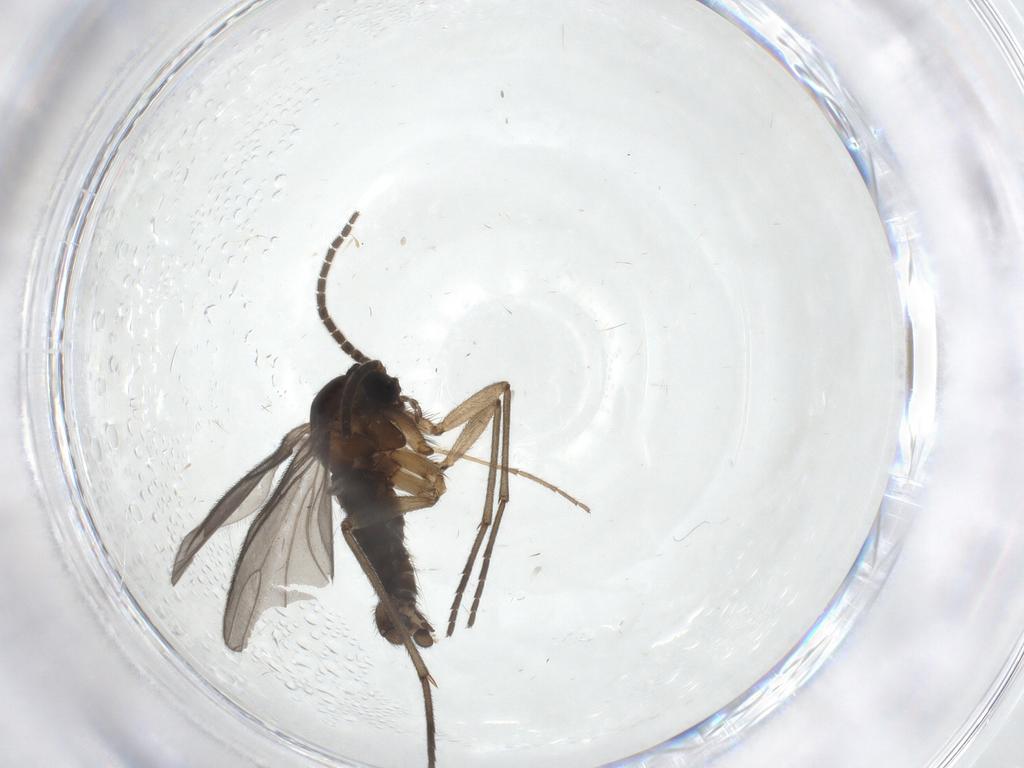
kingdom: Animalia
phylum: Arthropoda
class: Insecta
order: Diptera
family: Sciaridae
